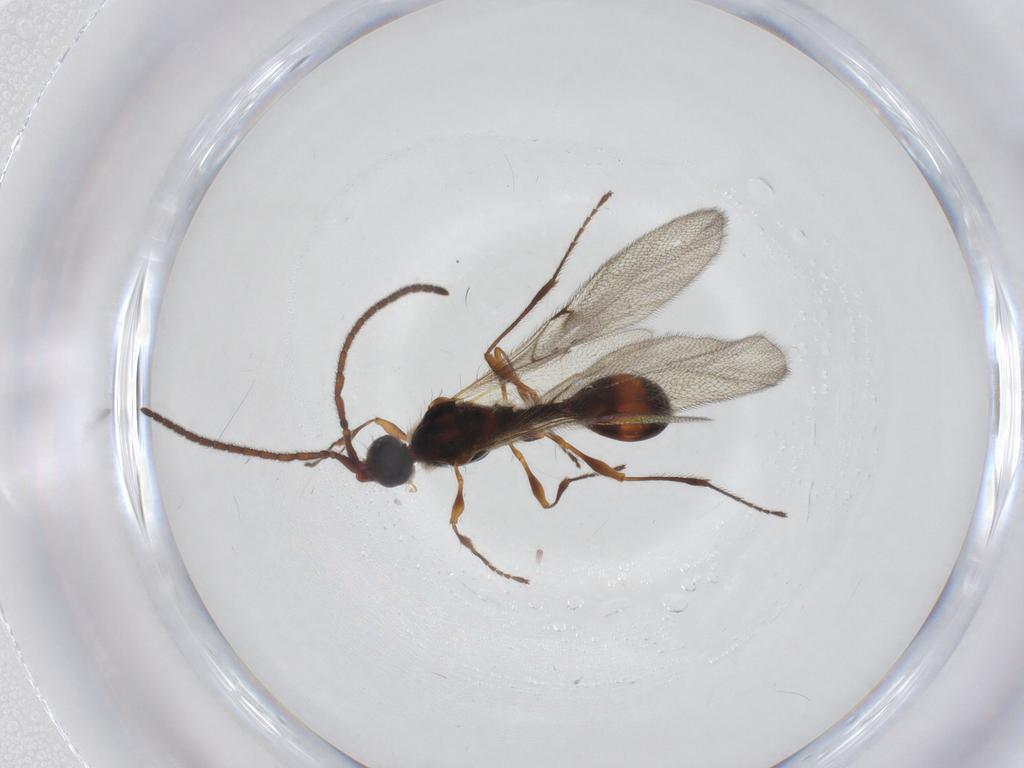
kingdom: Animalia
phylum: Arthropoda
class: Insecta
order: Hymenoptera
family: Diapriidae
